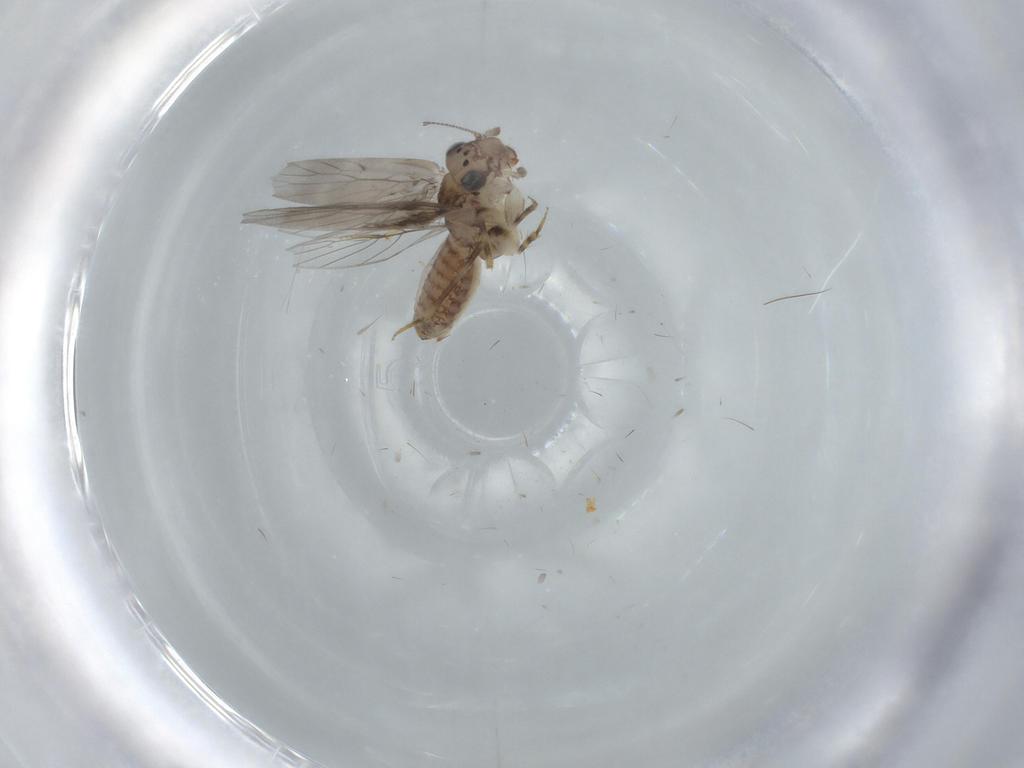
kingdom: Animalia
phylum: Arthropoda
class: Insecta
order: Psocodea
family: Lepidopsocidae
